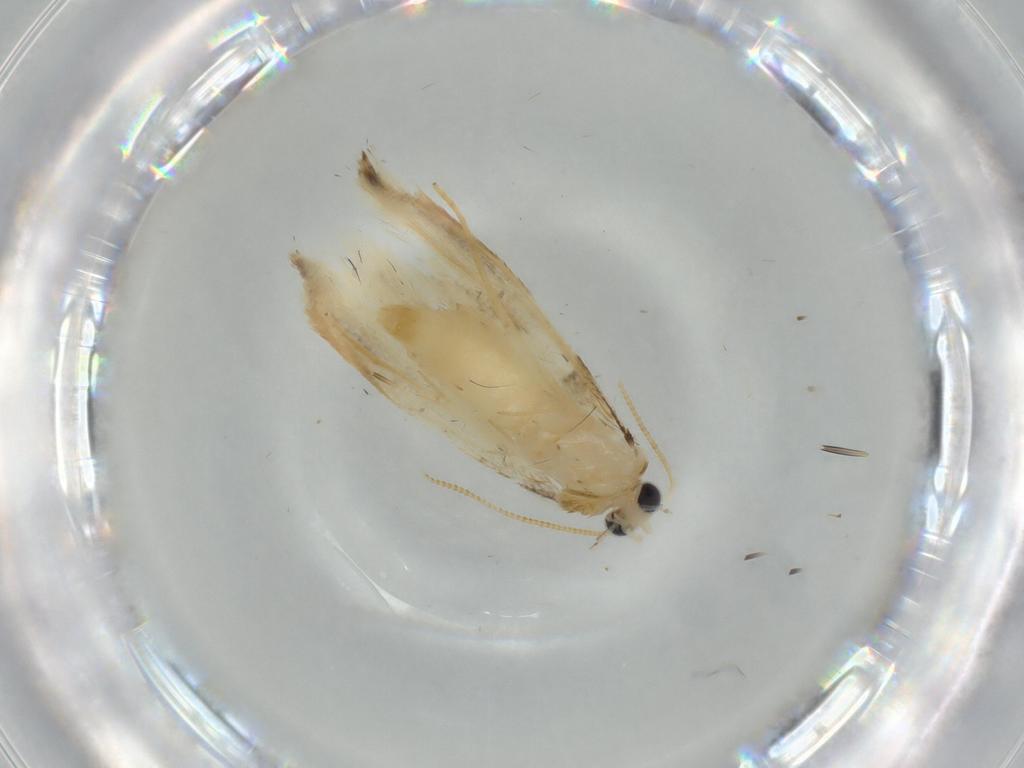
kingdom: Animalia
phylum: Arthropoda
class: Insecta
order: Lepidoptera
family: Tineidae
